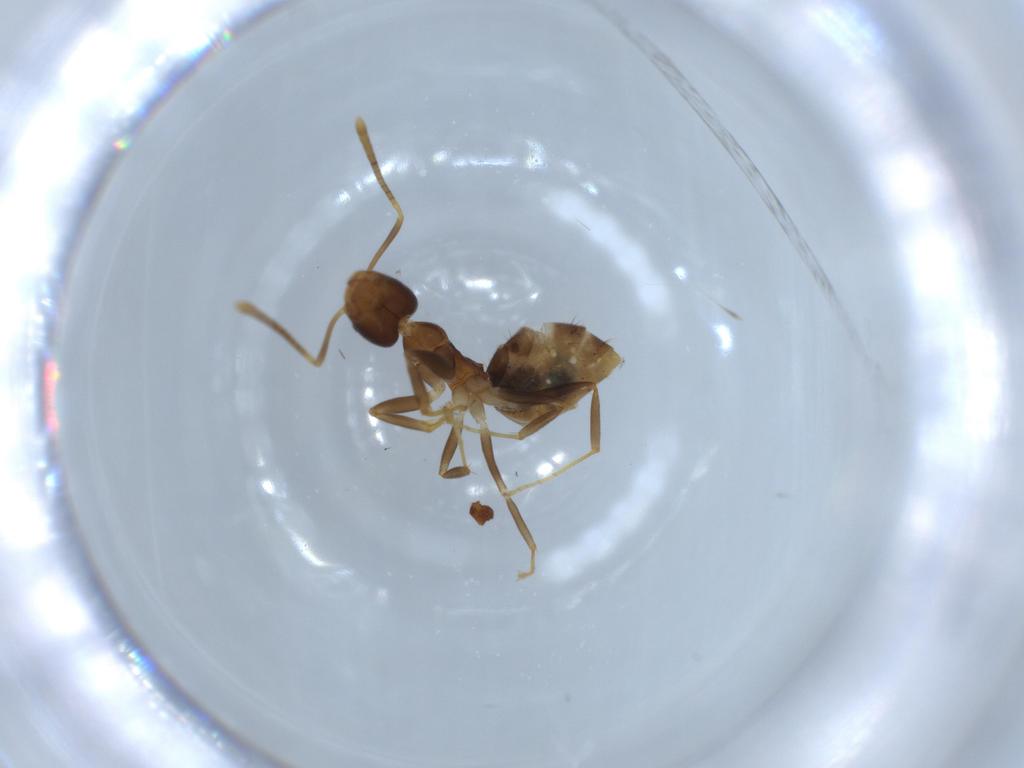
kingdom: Animalia
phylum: Arthropoda
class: Insecta
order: Hymenoptera
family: Formicidae
